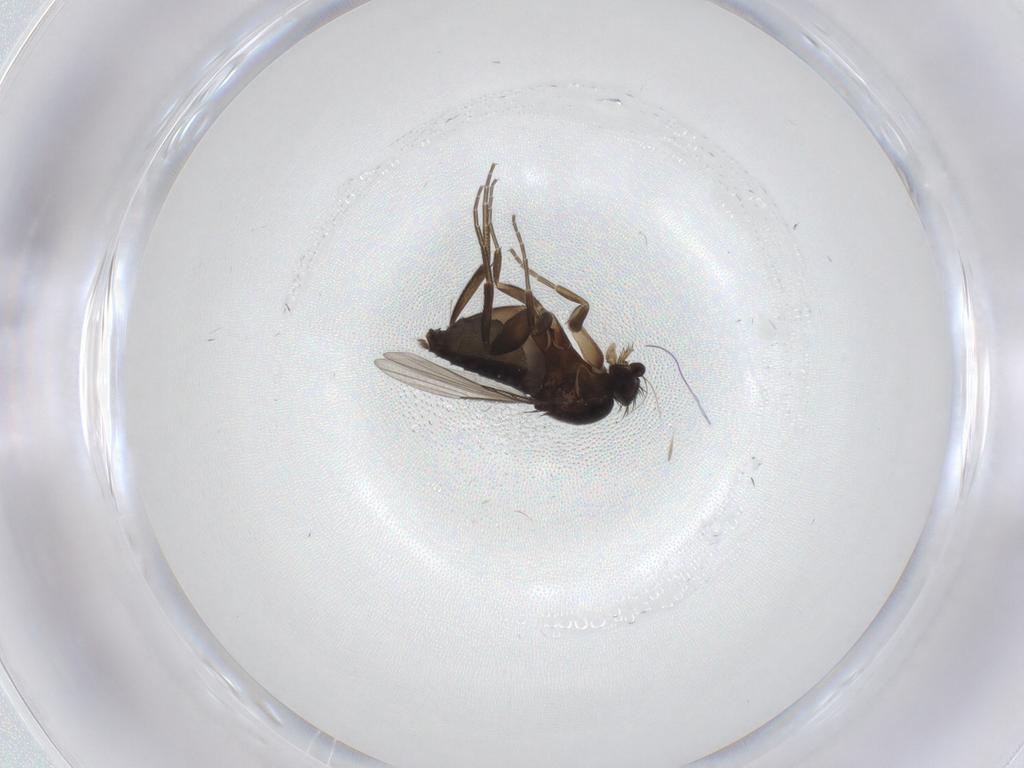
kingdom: Animalia
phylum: Arthropoda
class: Insecta
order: Diptera
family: Phoridae
